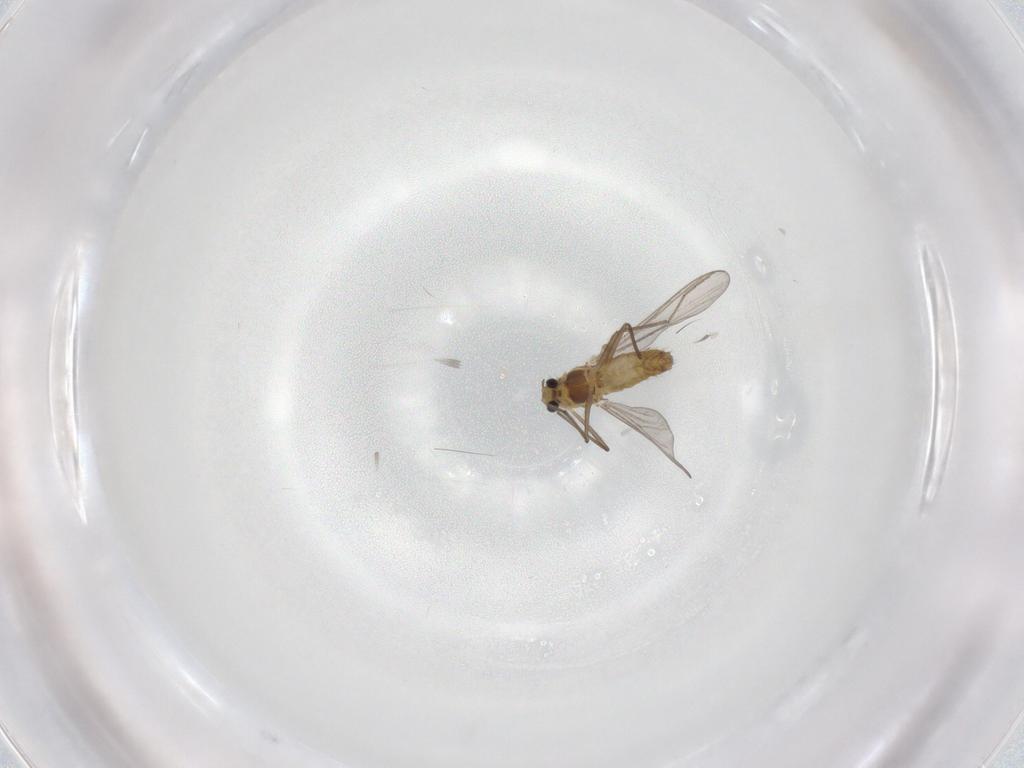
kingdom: Animalia
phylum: Arthropoda
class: Insecta
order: Diptera
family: Chironomidae
